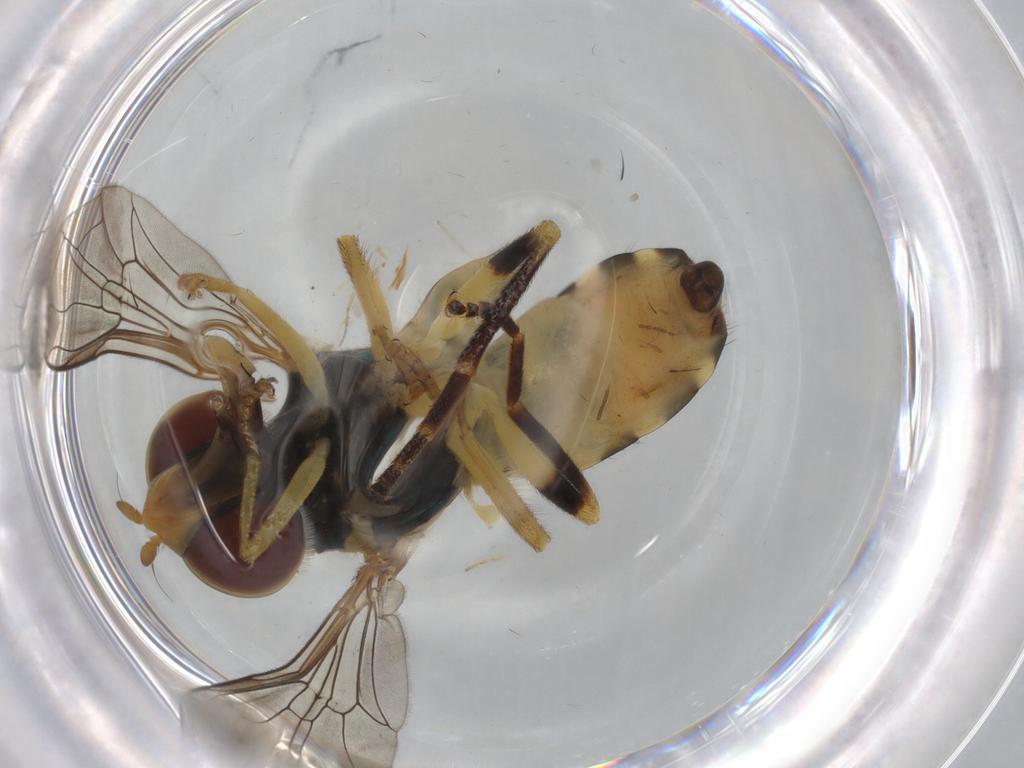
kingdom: Animalia
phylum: Arthropoda
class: Insecta
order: Diptera
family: Syrphidae
